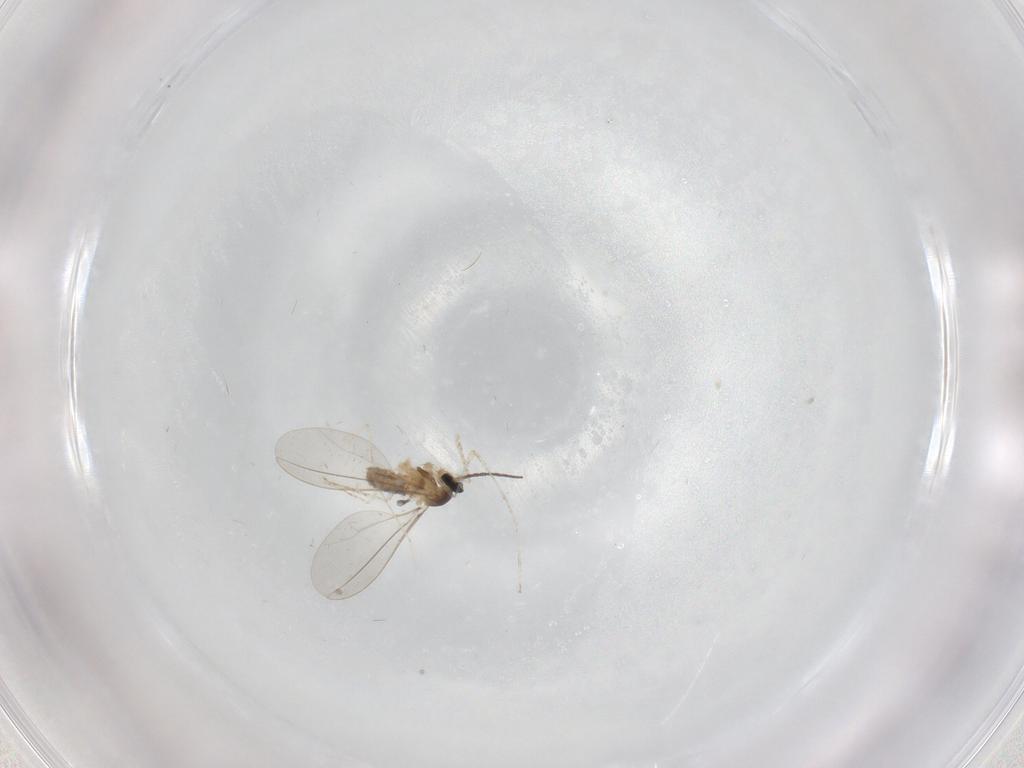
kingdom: Animalia
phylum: Arthropoda
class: Insecta
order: Diptera
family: Cecidomyiidae
